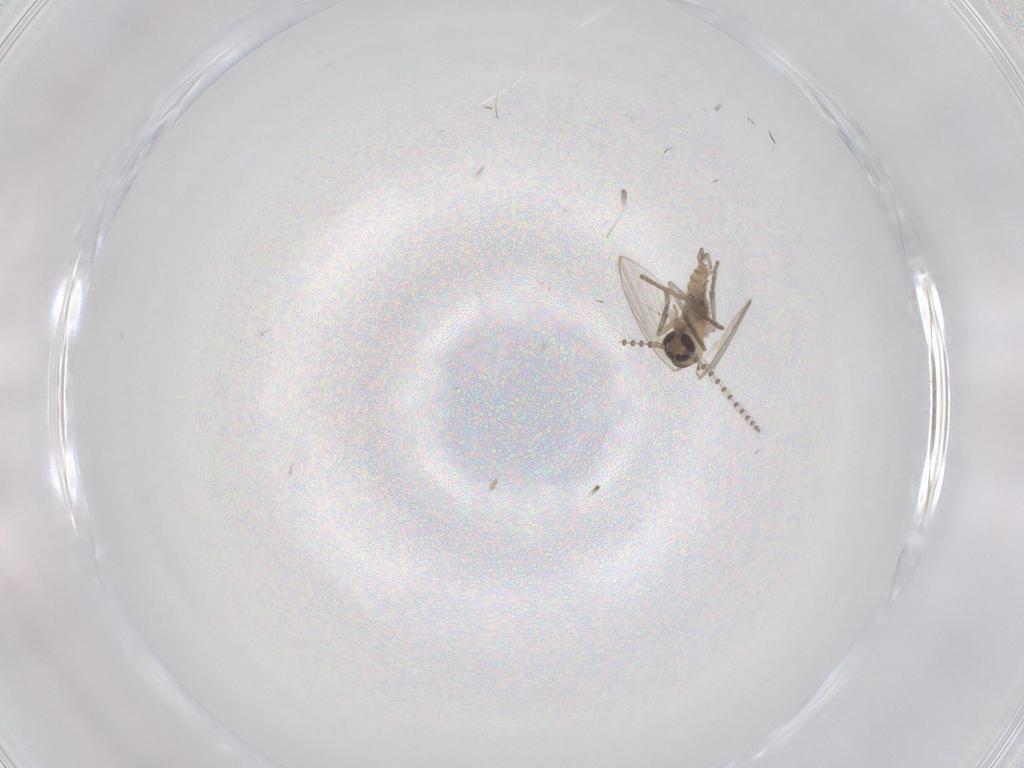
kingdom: Animalia
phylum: Arthropoda
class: Insecta
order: Diptera
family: Psychodidae
